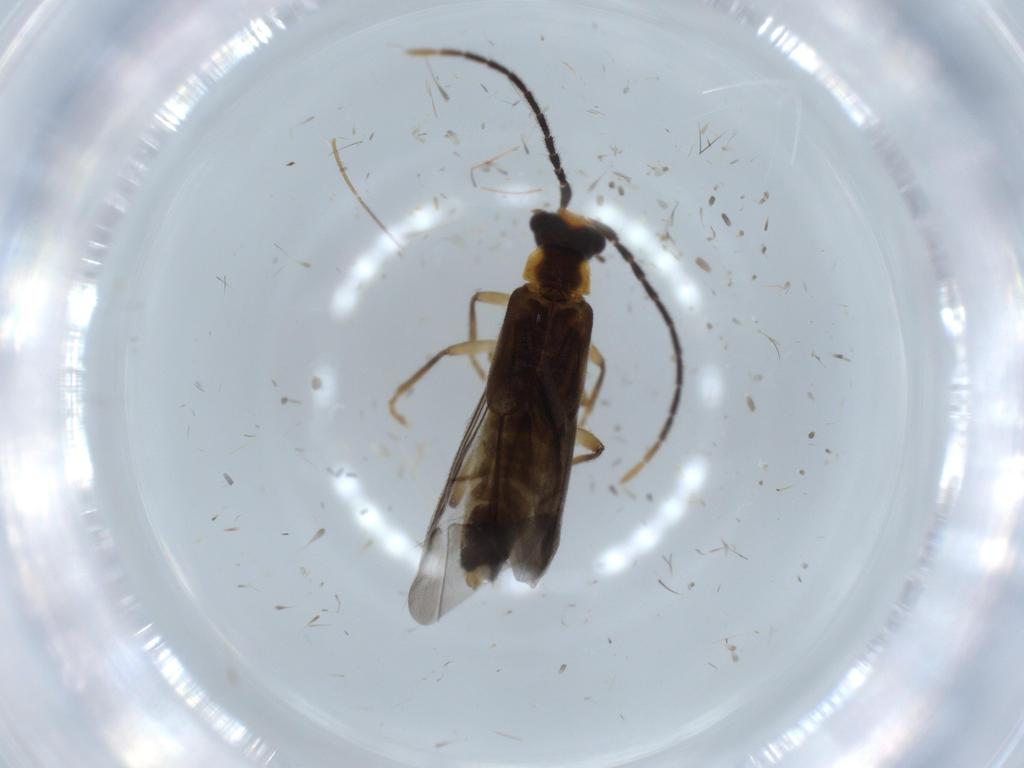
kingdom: Animalia
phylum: Arthropoda
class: Insecta
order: Coleoptera
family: Cantharidae
